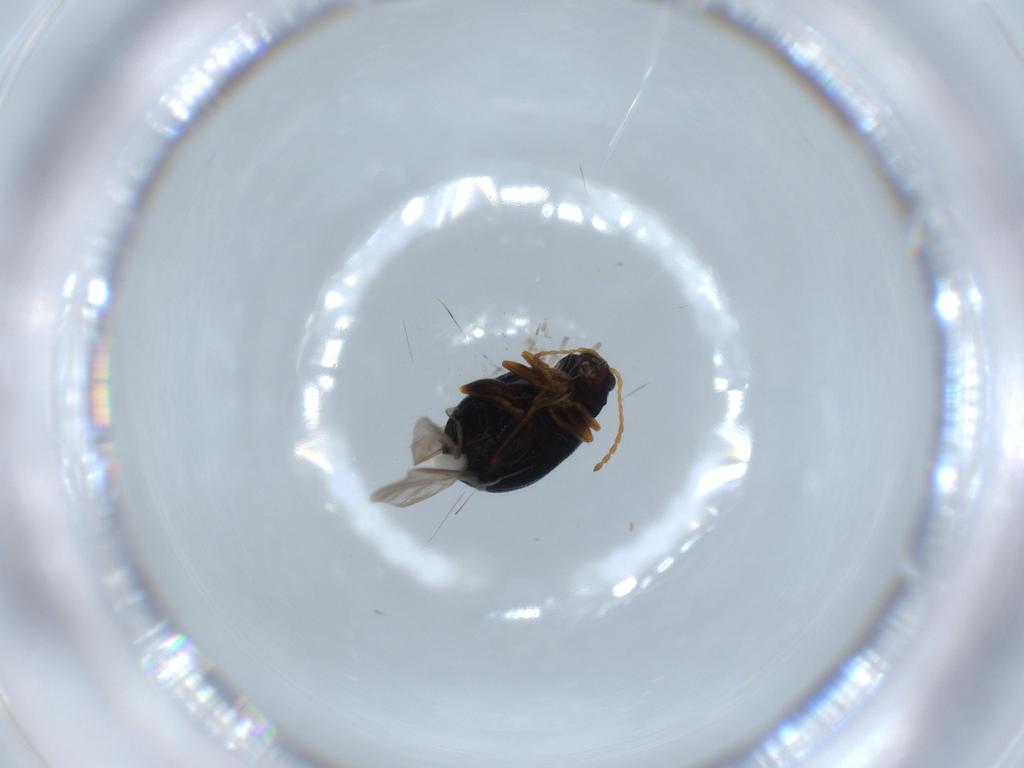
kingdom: Animalia
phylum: Arthropoda
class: Insecta
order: Coleoptera
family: Chrysomelidae
